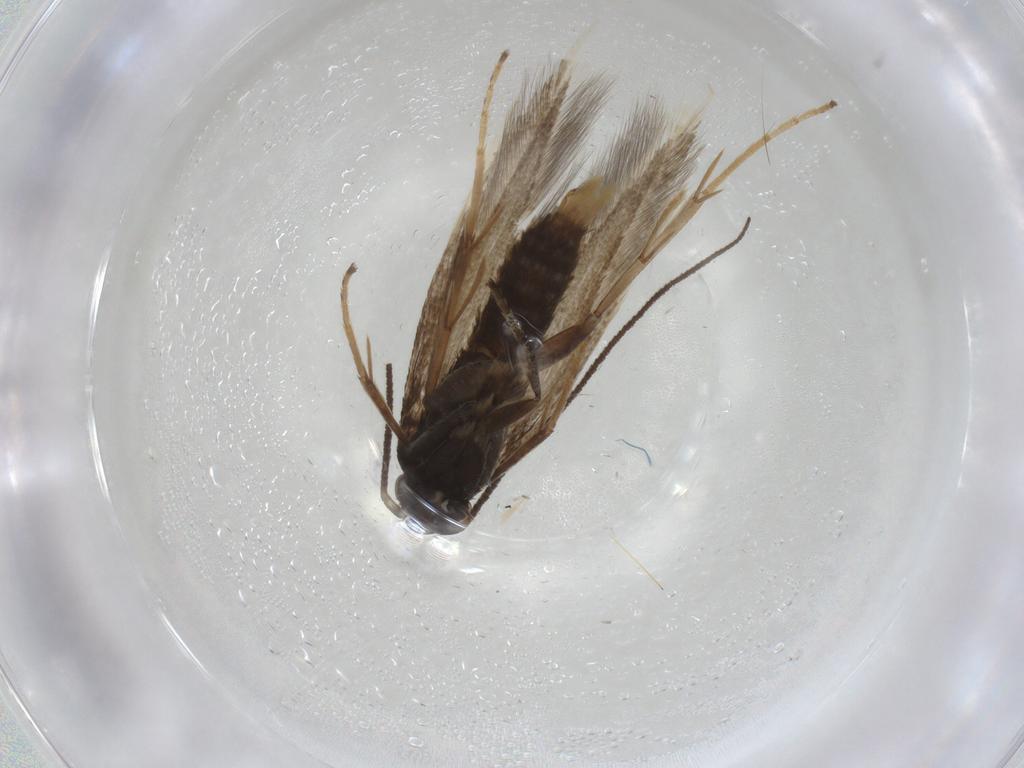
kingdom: Animalia
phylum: Arthropoda
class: Insecta
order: Lepidoptera
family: Tineidae
